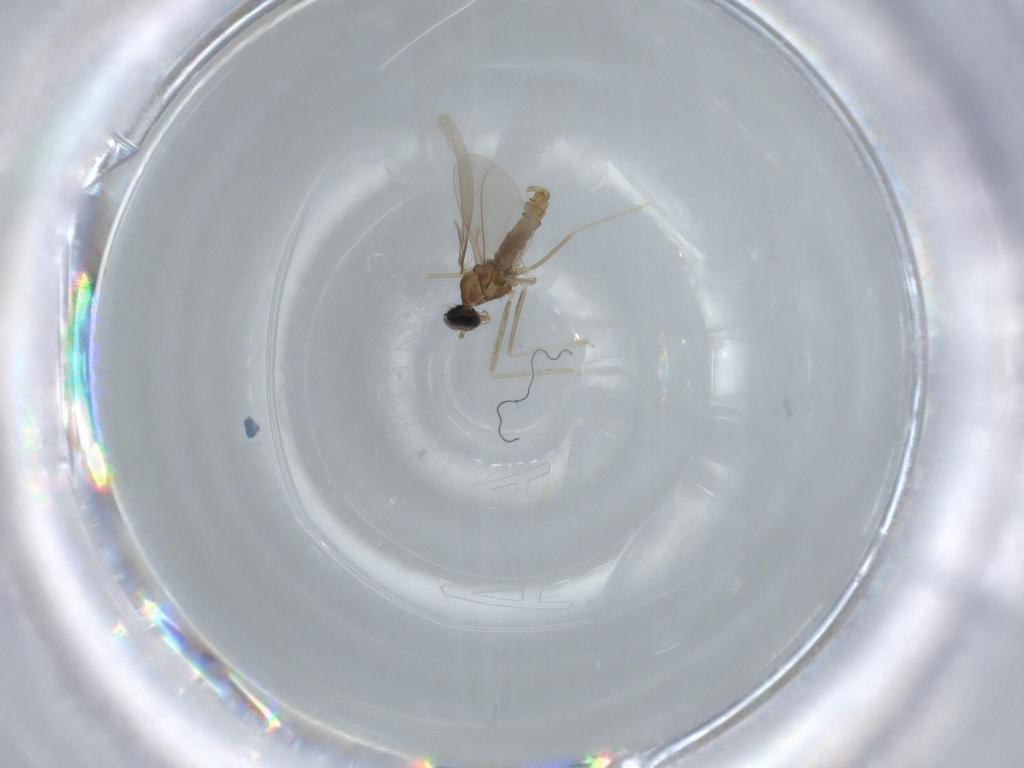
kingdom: Animalia
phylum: Arthropoda
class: Insecta
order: Diptera
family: Cecidomyiidae
